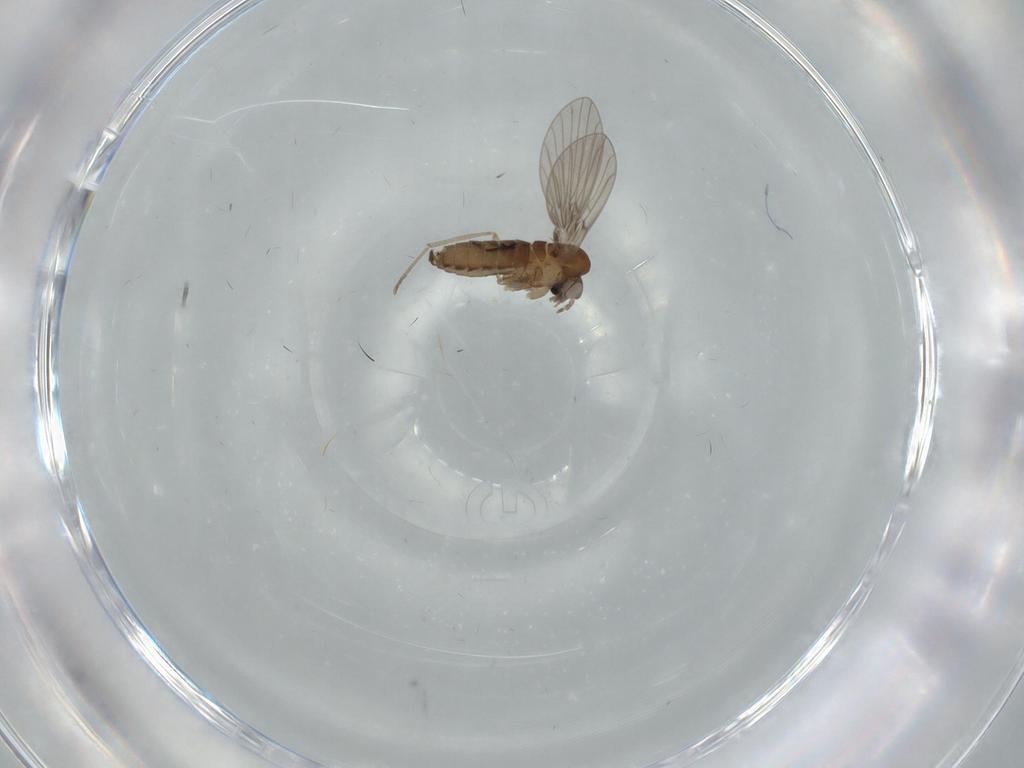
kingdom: Animalia
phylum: Arthropoda
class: Insecta
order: Diptera
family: Psychodidae
